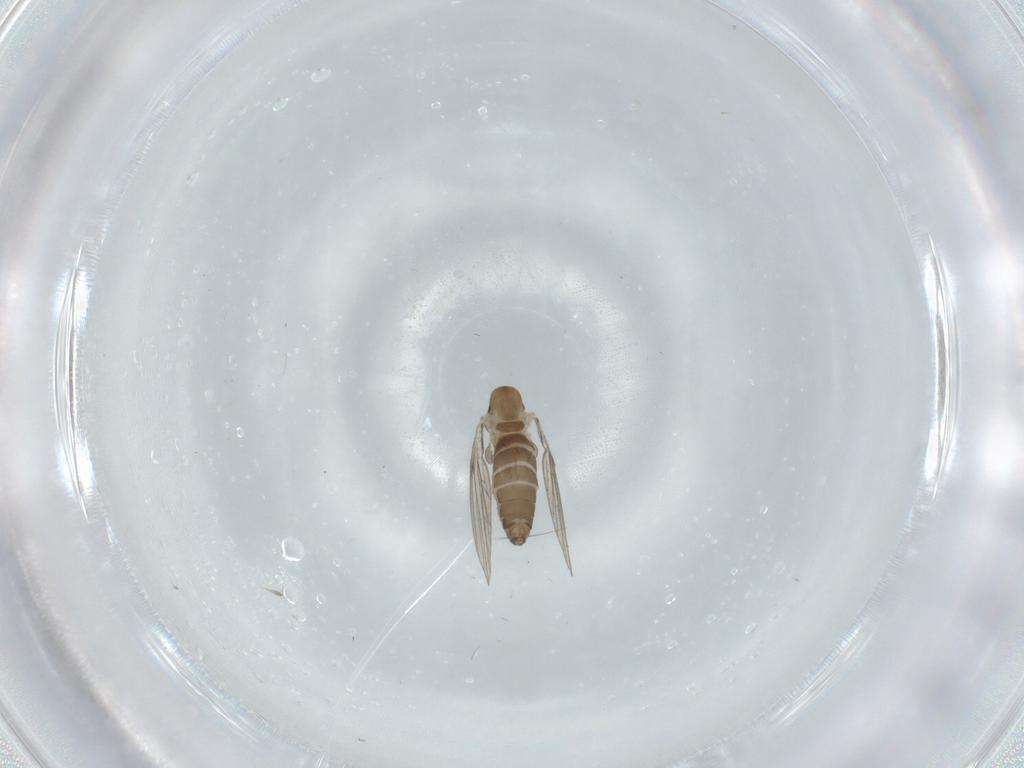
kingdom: Animalia
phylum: Arthropoda
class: Insecta
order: Diptera
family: Psychodidae
